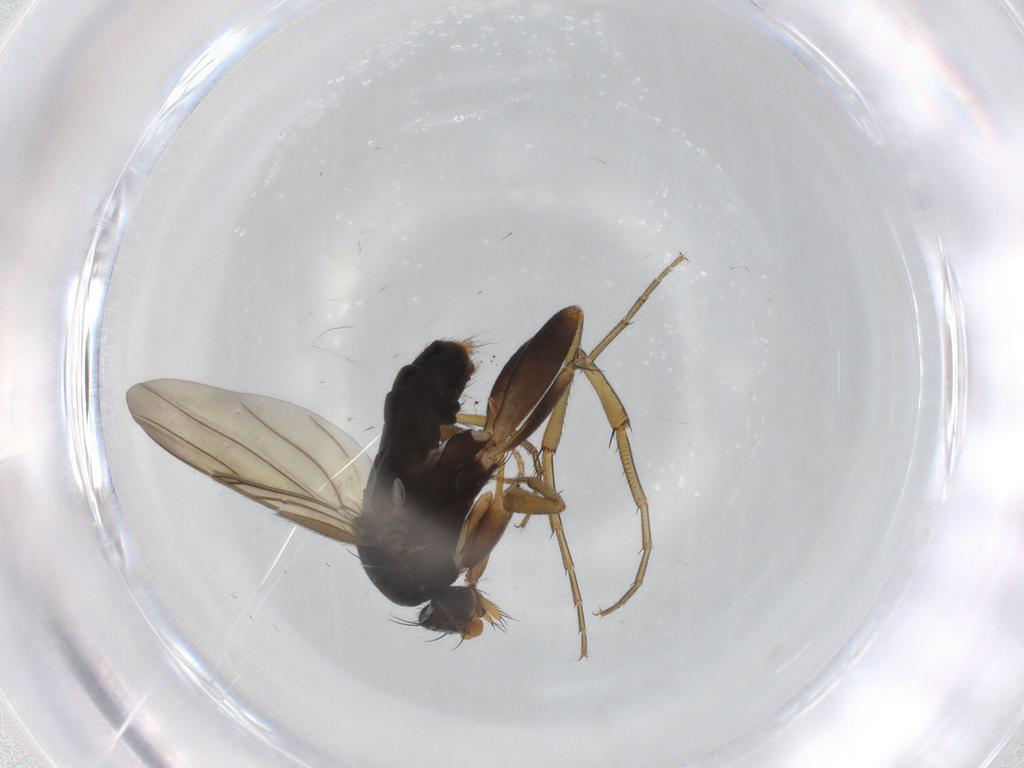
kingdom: Animalia
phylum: Arthropoda
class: Insecta
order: Diptera
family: Phoridae
